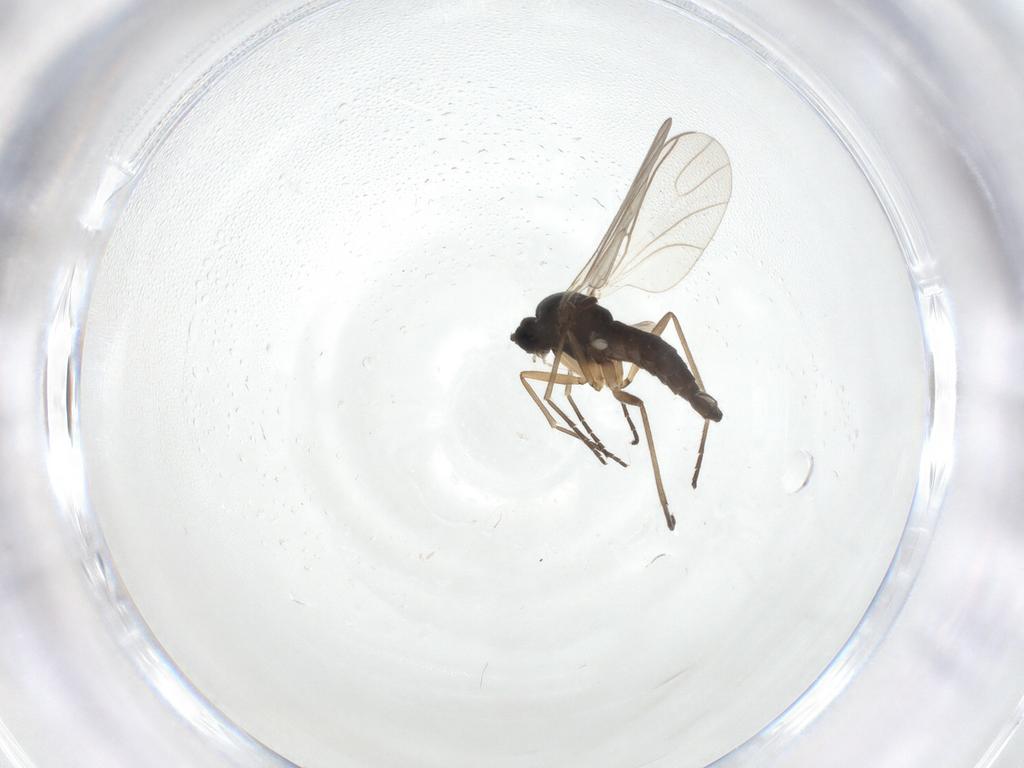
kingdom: Animalia
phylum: Arthropoda
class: Insecta
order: Diptera
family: Sciaridae
